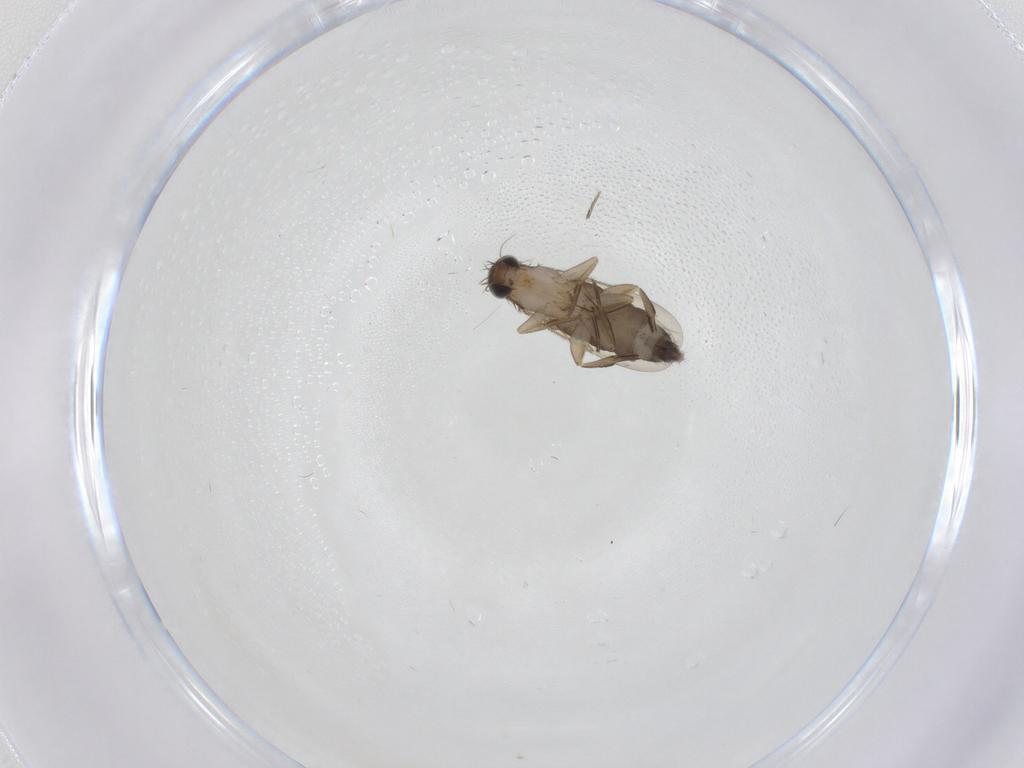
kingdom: Animalia
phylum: Arthropoda
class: Insecta
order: Diptera
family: Phoridae
